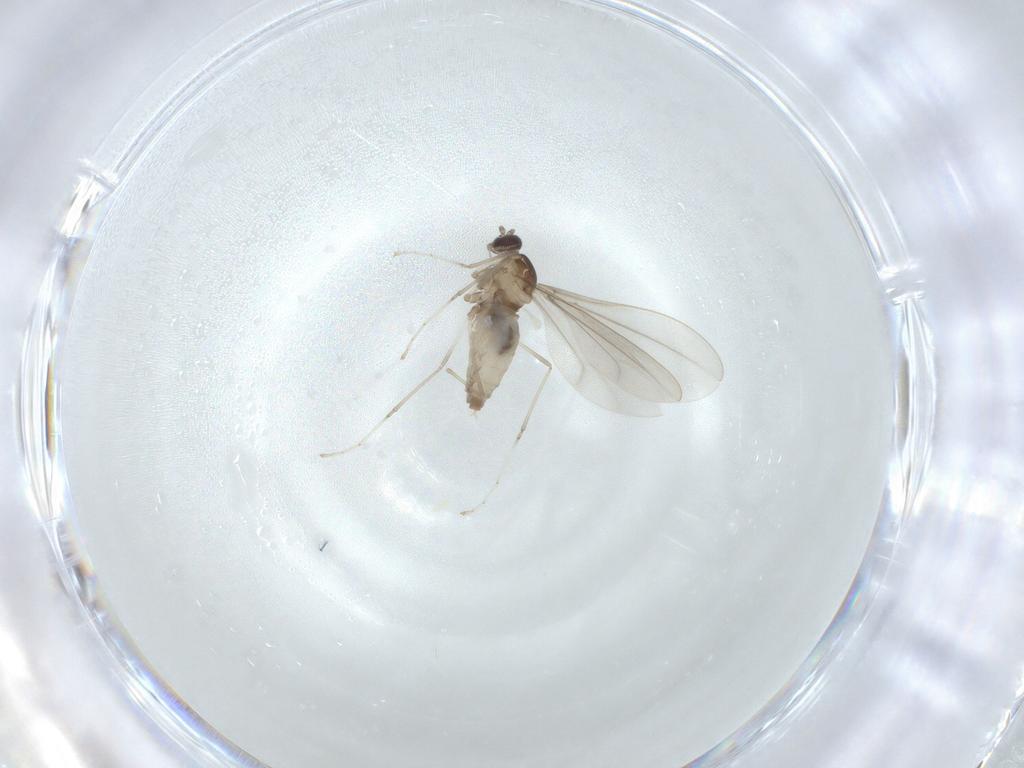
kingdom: Animalia
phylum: Arthropoda
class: Insecta
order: Diptera
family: Cecidomyiidae
